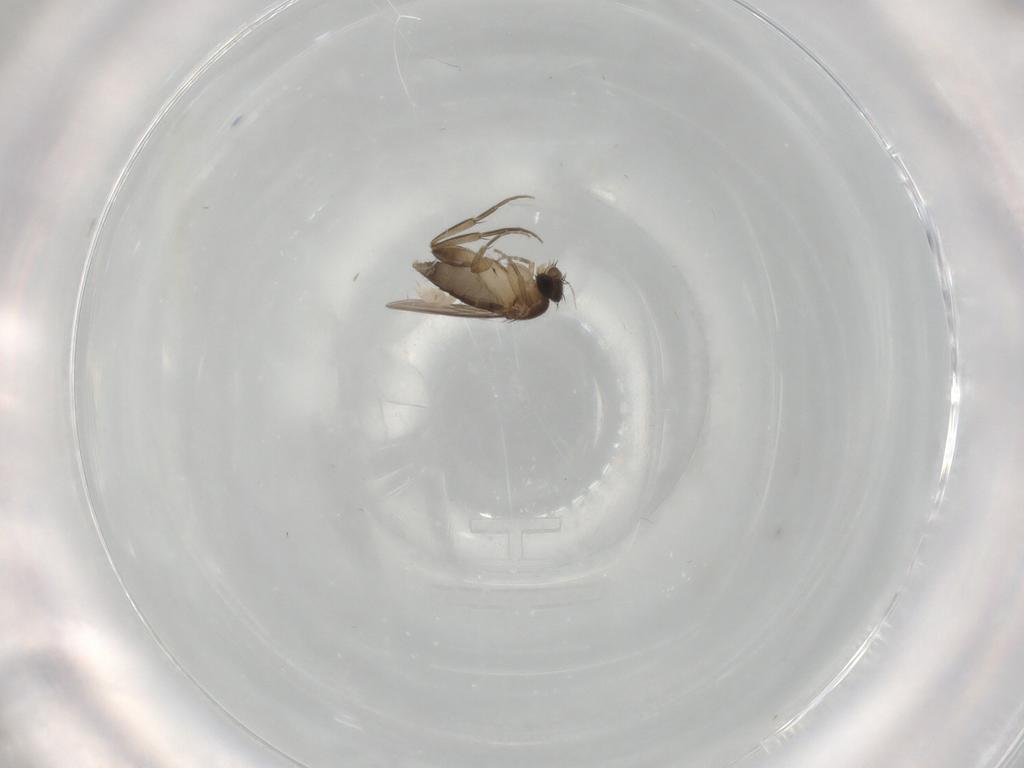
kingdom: Animalia
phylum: Arthropoda
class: Insecta
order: Diptera
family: Phoridae
